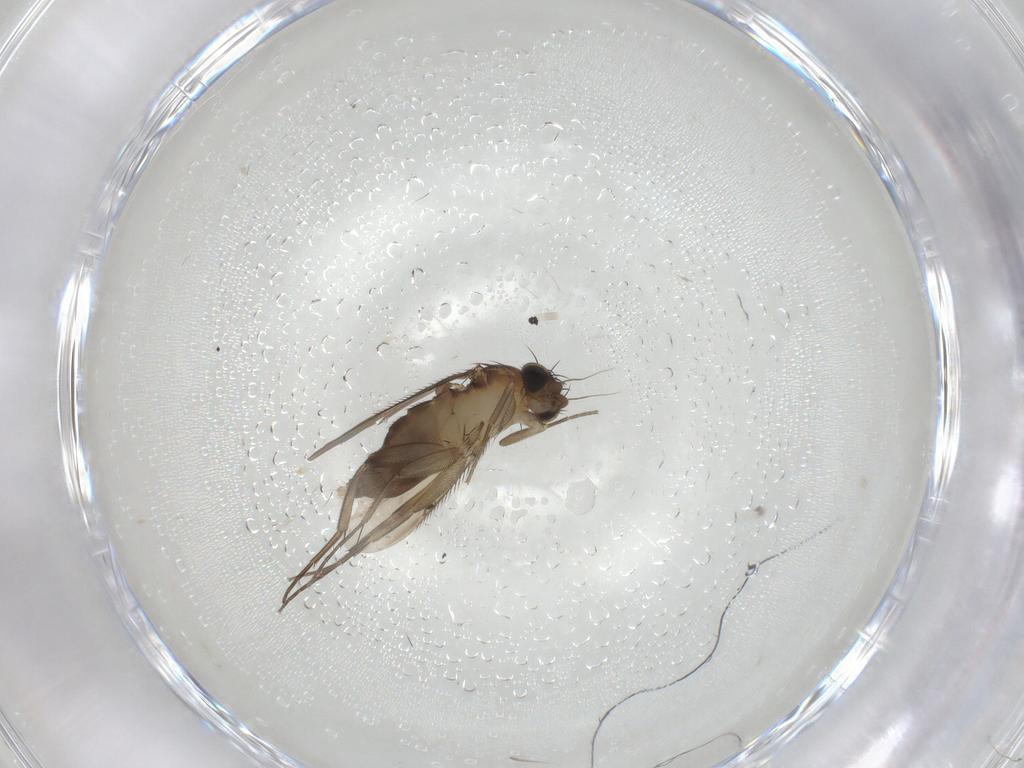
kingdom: Animalia
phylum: Arthropoda
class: Insecta
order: Diptera
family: Phoridae
